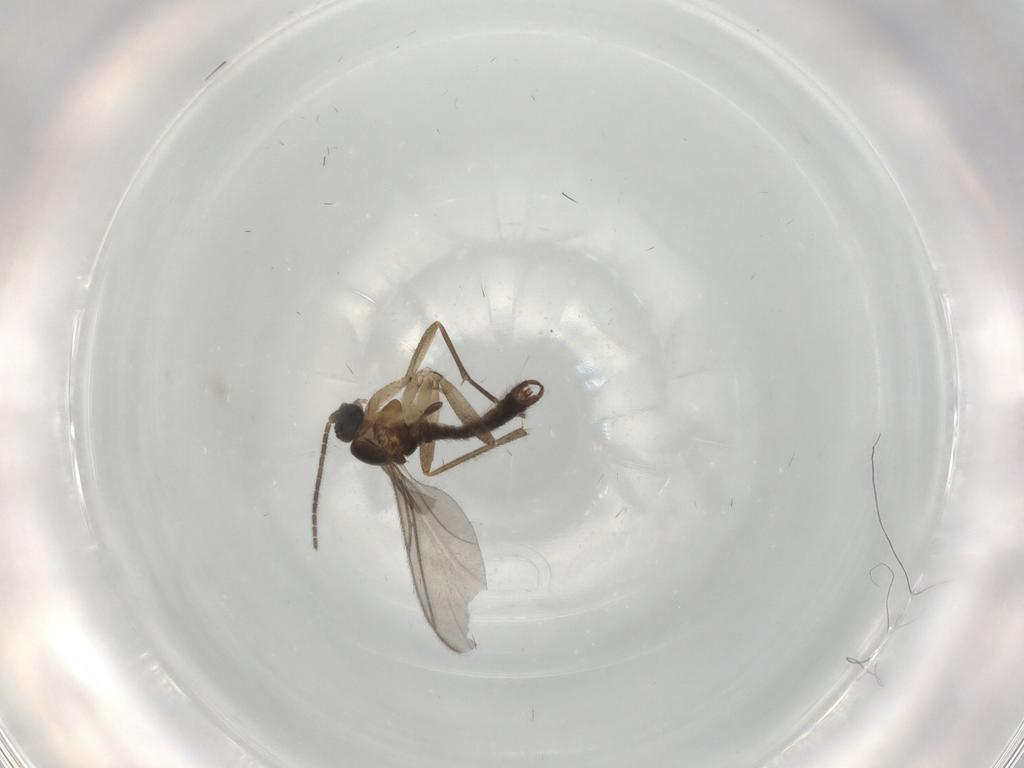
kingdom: Animalia
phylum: Arthropoda
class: Insecta
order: Diptera
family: Sciaridae
